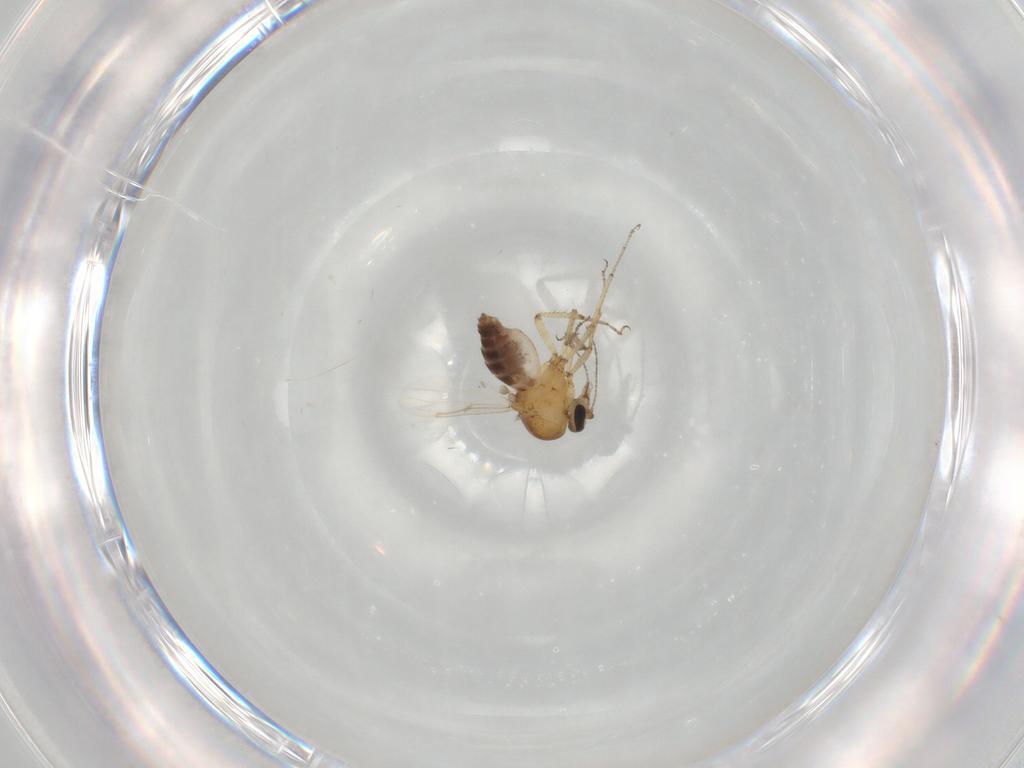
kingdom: Animalia
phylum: Arthropoda
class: Insecta
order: Diptera
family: Ceratopogonidae
